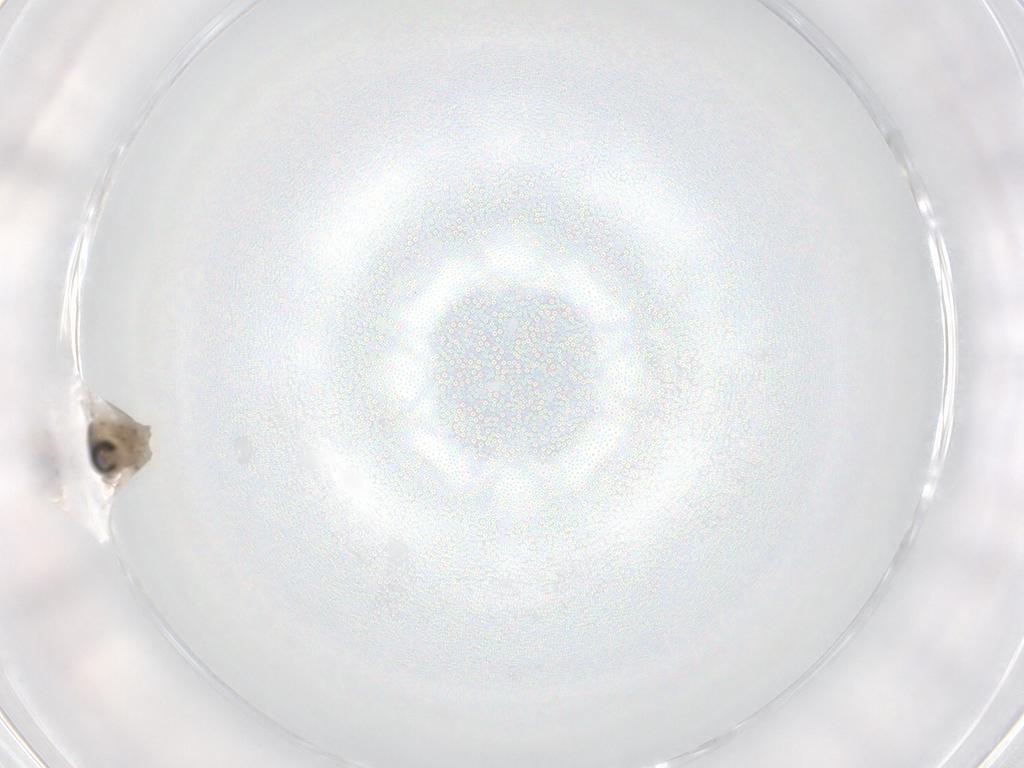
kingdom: Animalia
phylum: Arthropoda
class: Insecta
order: Diptera
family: Cecidomyiidae
